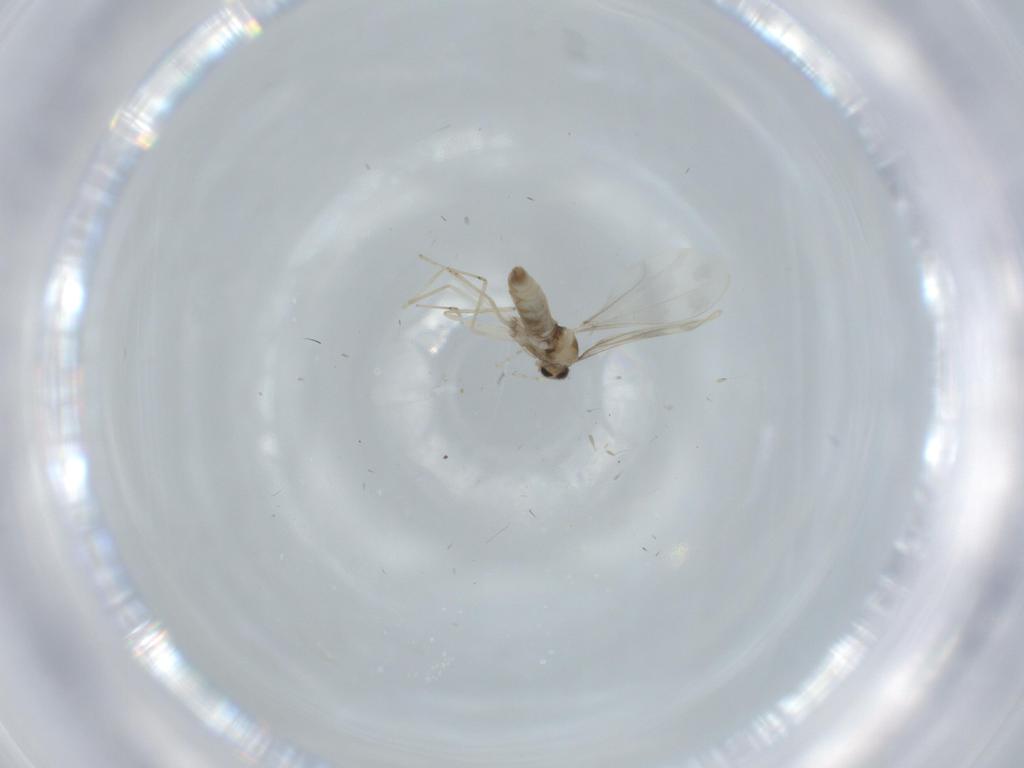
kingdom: Animalia
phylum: Arthropoda
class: Insecta
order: Diptera
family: Cecidomyiidae
